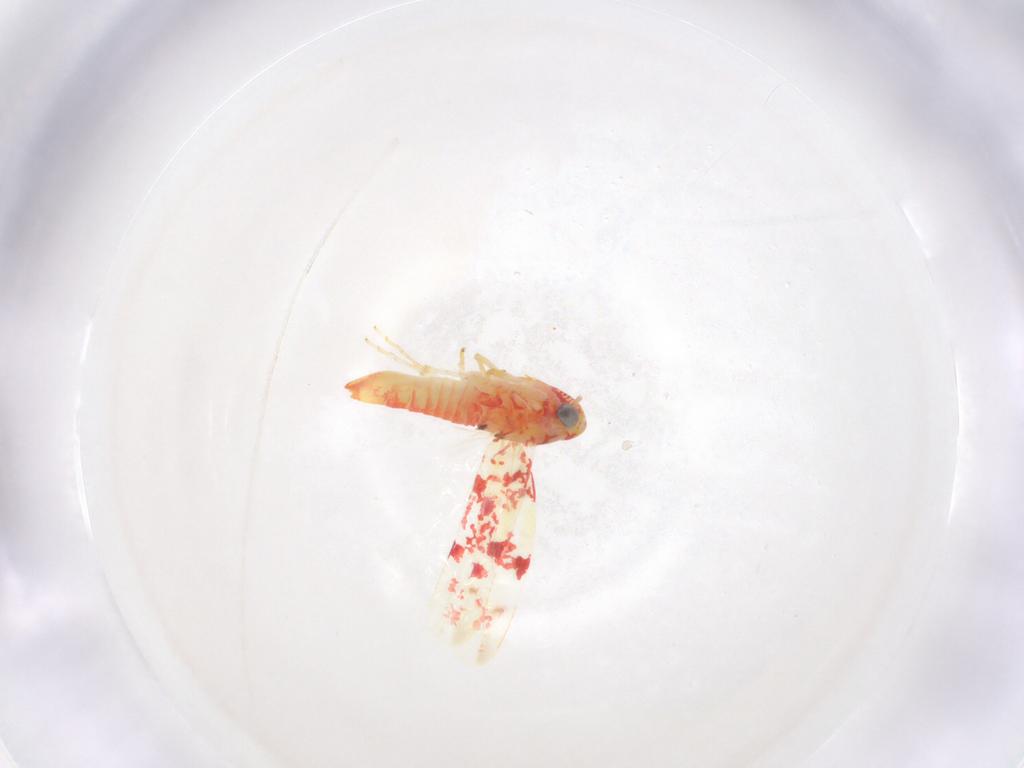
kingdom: Animalia
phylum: Arthropoda
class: Insecta
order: Hemiptera
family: Cicadellidae
